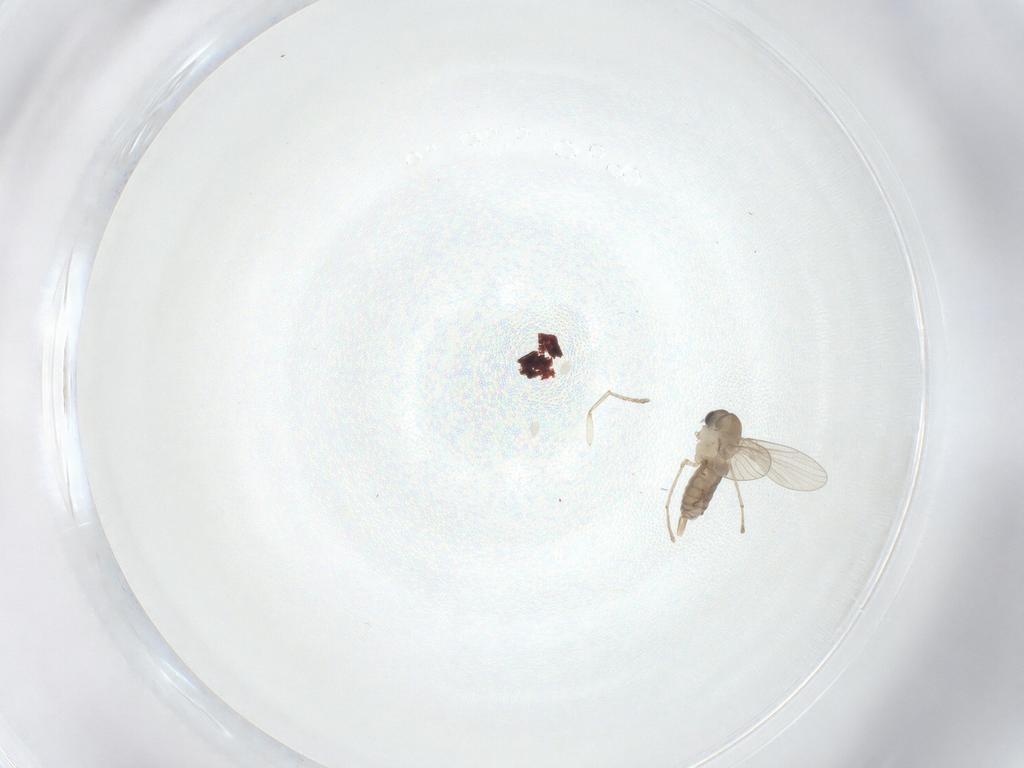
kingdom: Animalia
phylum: Arthropoda
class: Insecta
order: Diptera
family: Psychodidae
